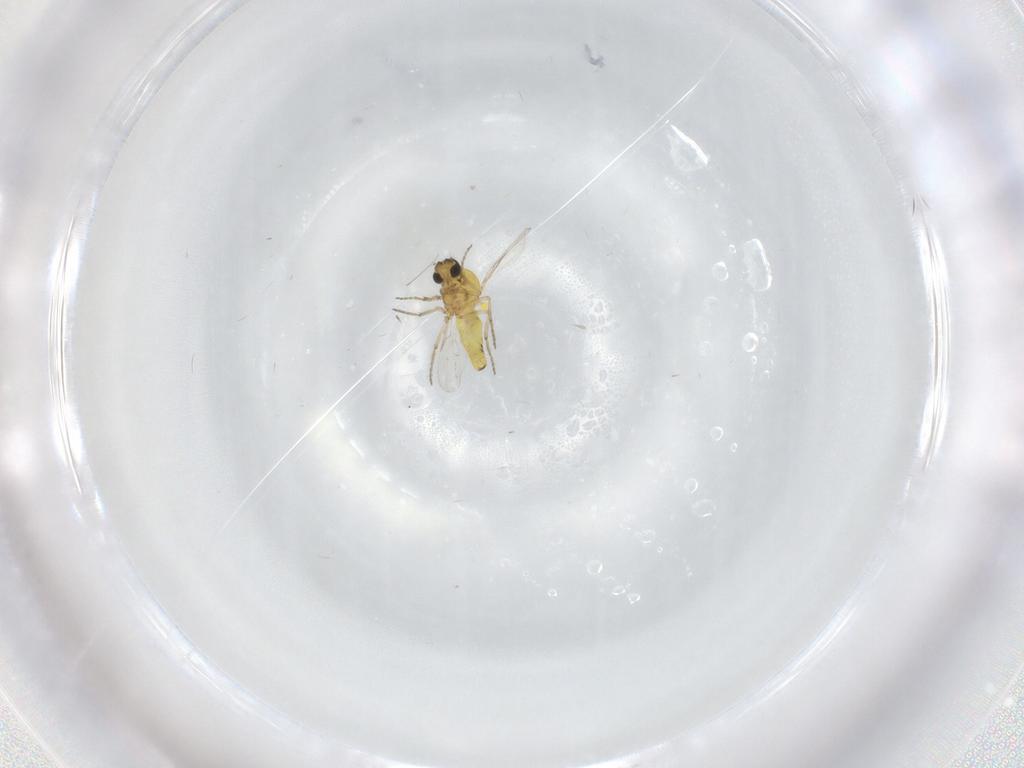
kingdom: Animalia
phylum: Arthropoda
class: Insecta
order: Diptera
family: Ceratopogonidae
